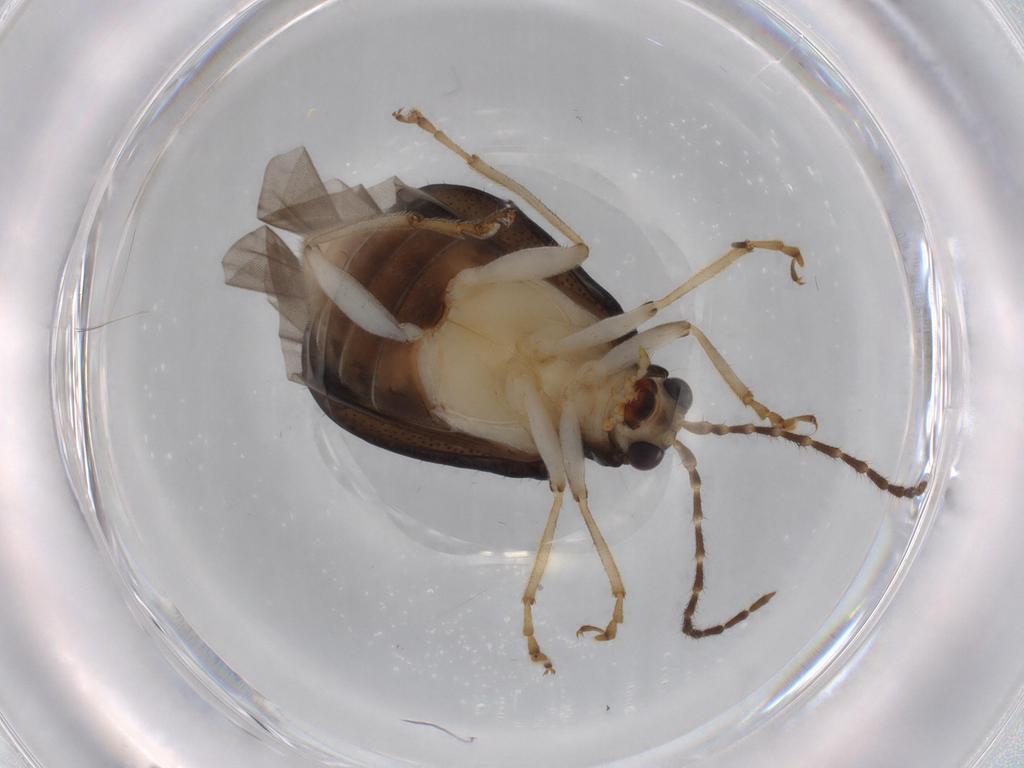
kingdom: Animalia
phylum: Arthropoda
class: Insecta
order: Coleoptera
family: Chrysomelidae
